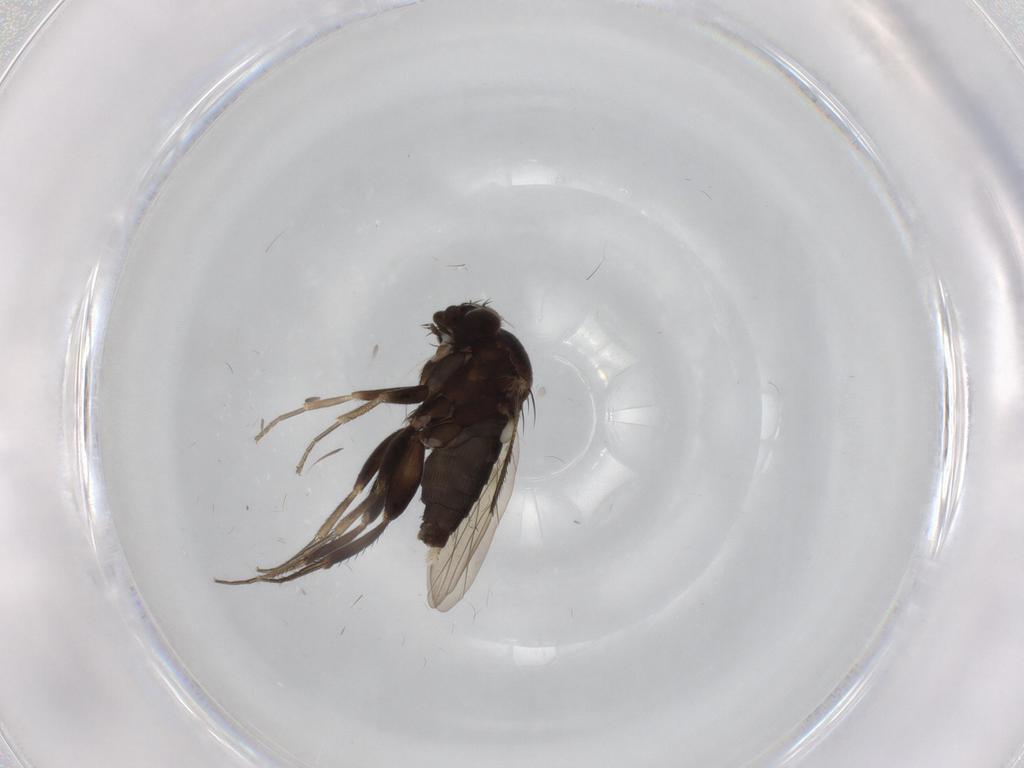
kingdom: Animalia
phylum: Arthropoda
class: Insecta
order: Diptera
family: Phoridae
